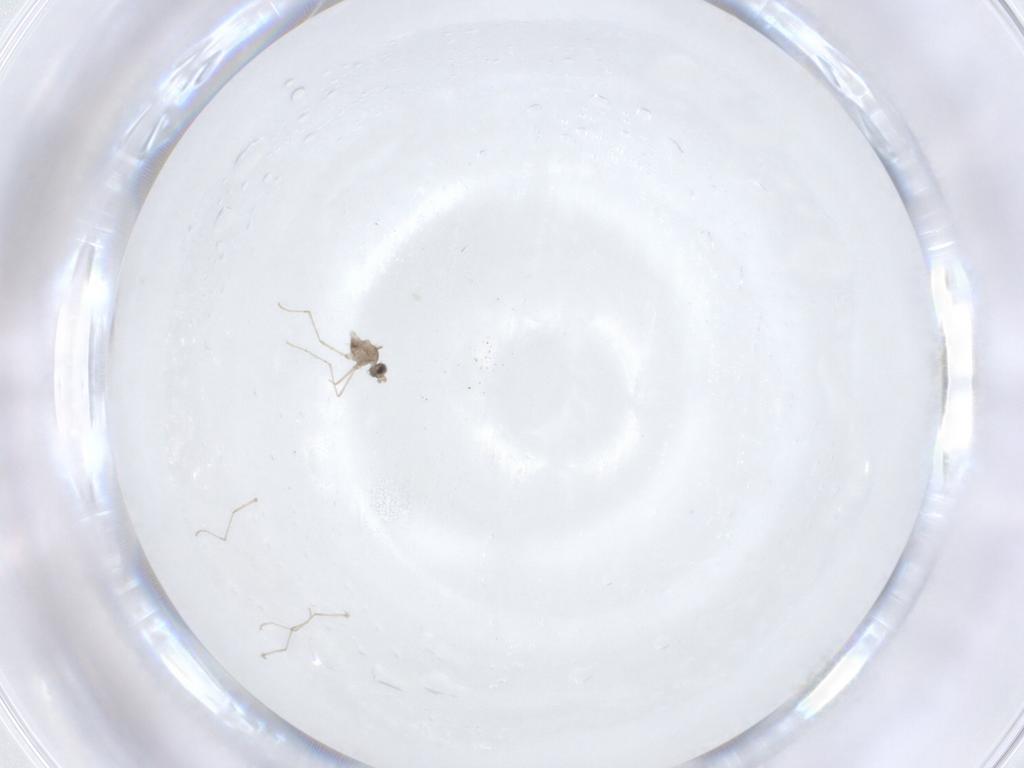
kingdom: Animalia
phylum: Arthropoda
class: Insecta
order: Diptera
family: Cecidomyiidae
